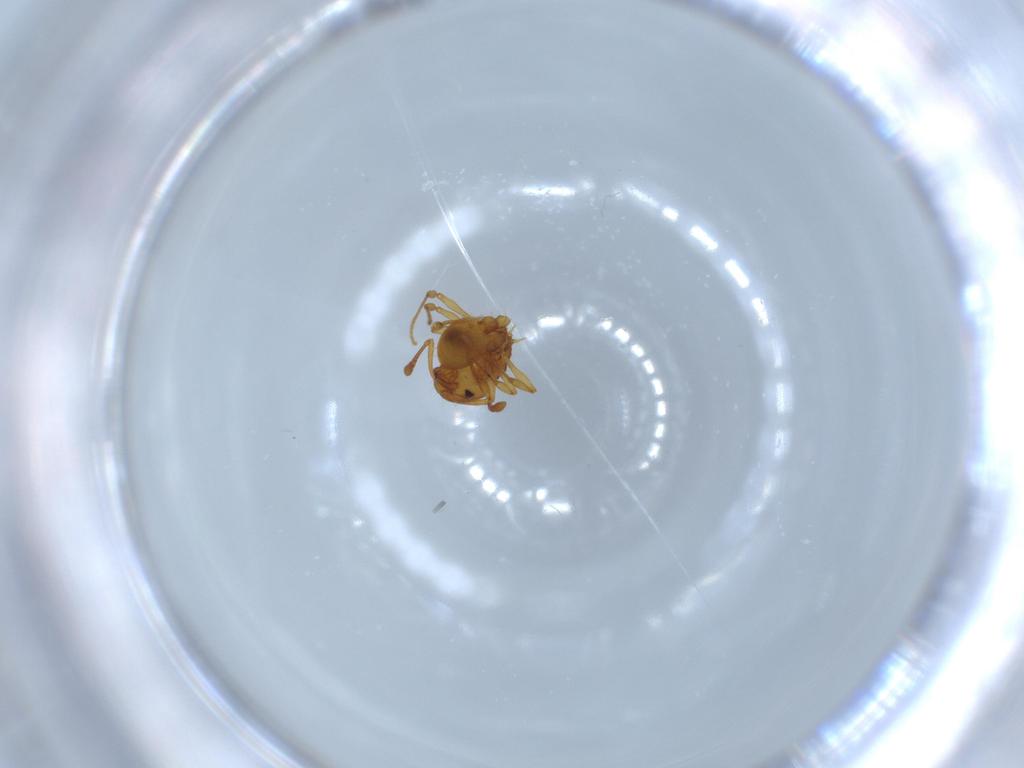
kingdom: Animalia
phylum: Arthropoda
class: Insecta
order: Hymenoptera
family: Formicidae
